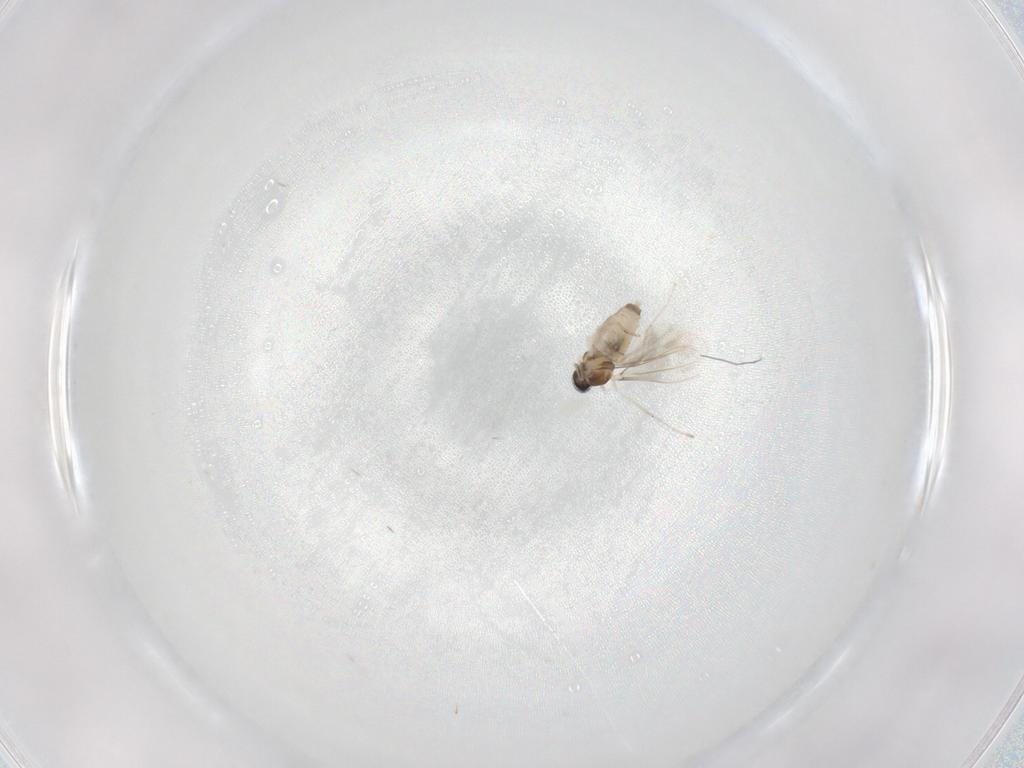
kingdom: Animalia
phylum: Arthropoda
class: Insecta
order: Diptera
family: Cecidomyiidae
